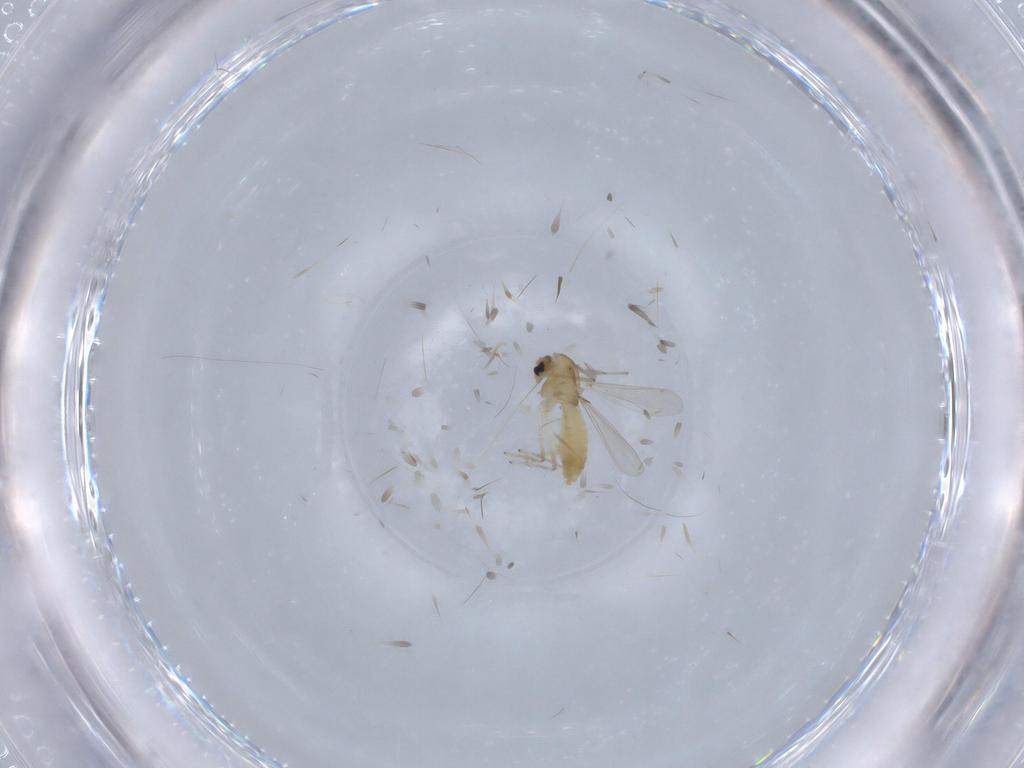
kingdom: Animalia
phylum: Arthropoda
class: Insecta
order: Diptera
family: Chironomidae
